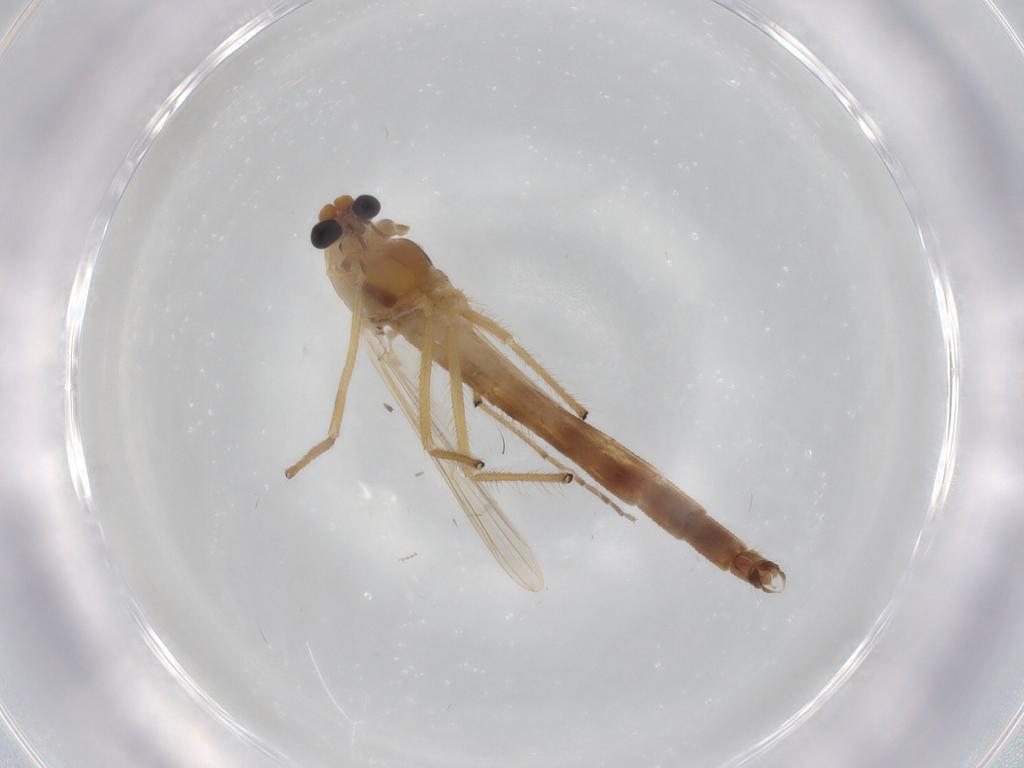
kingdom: Animalia
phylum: Arthropoda
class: Insecta
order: Diptera
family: Chironomidae
